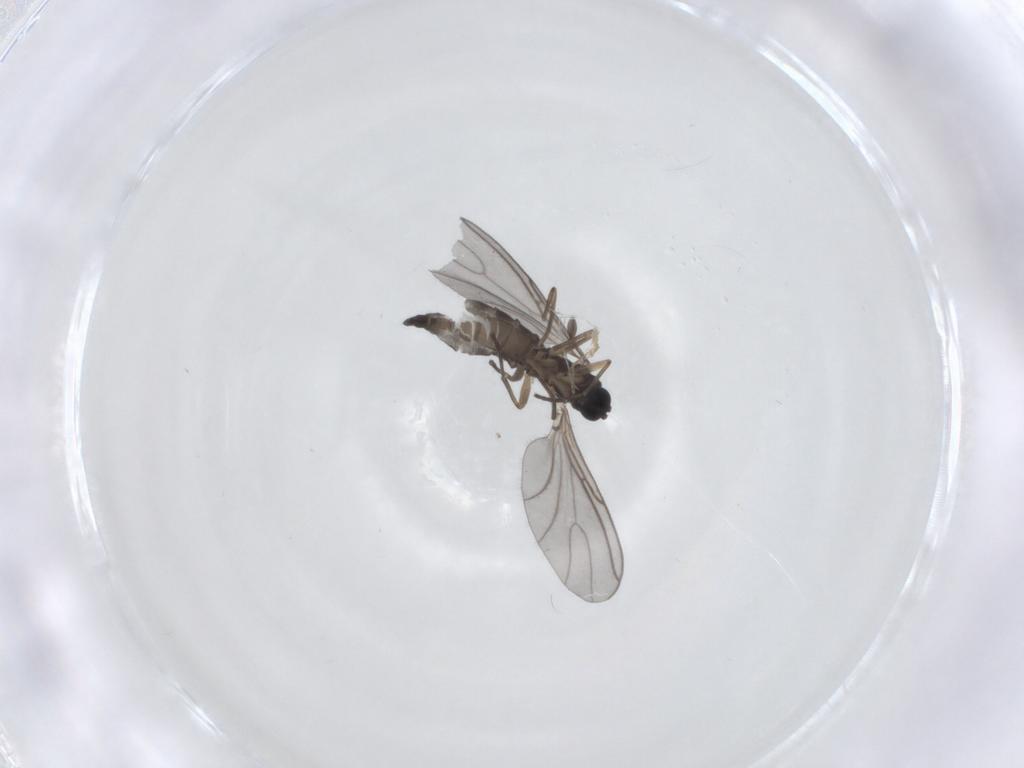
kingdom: Animalia
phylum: Arthropoda
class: Insecta
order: Diptera
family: Sciaridae
